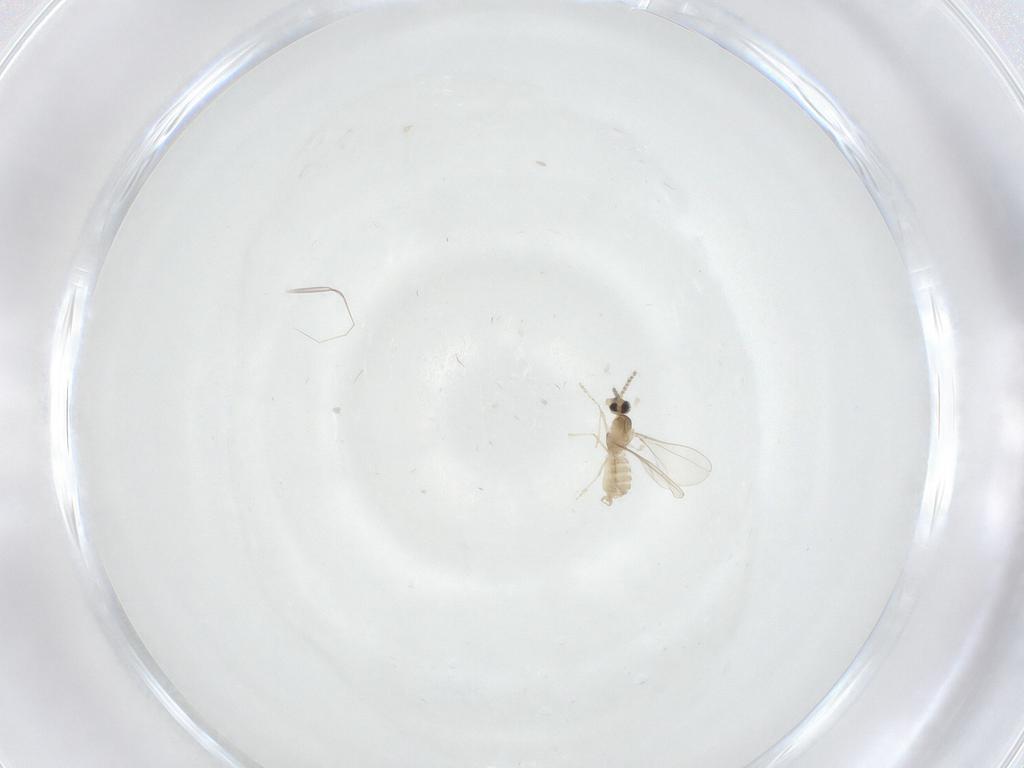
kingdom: Animalia
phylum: Arthropoda
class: Insecta
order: Diptera
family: Cecidomyiidae
